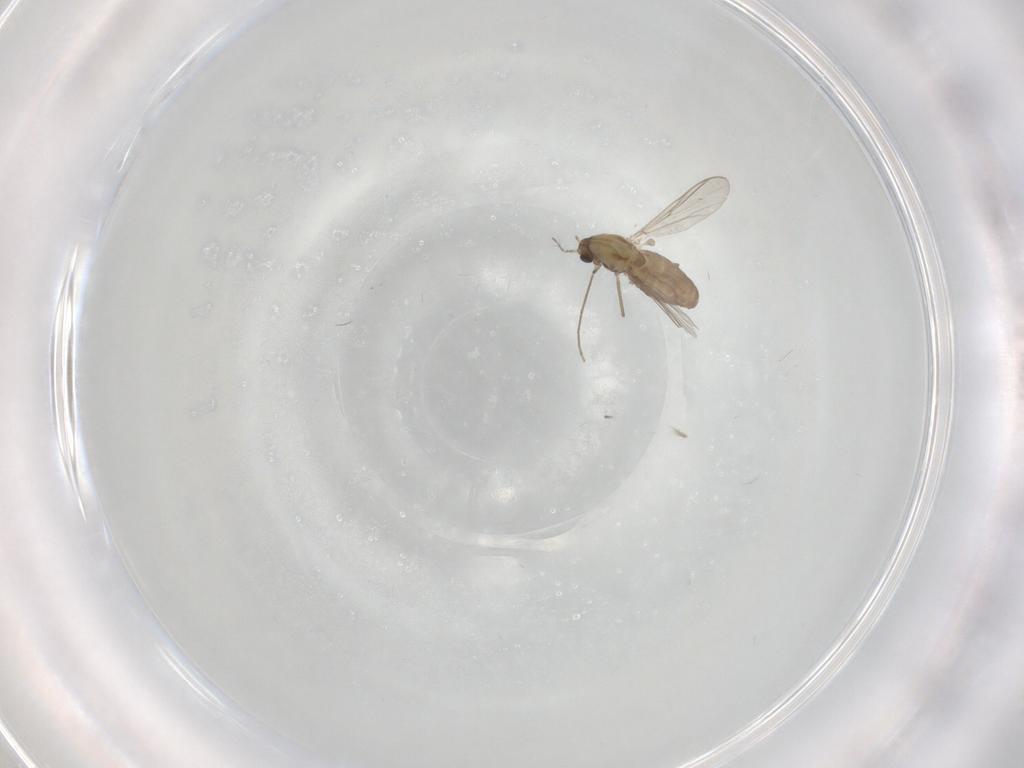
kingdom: Animalia
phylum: Arthropoda
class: Insecta
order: Diptera
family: Chironomidae
